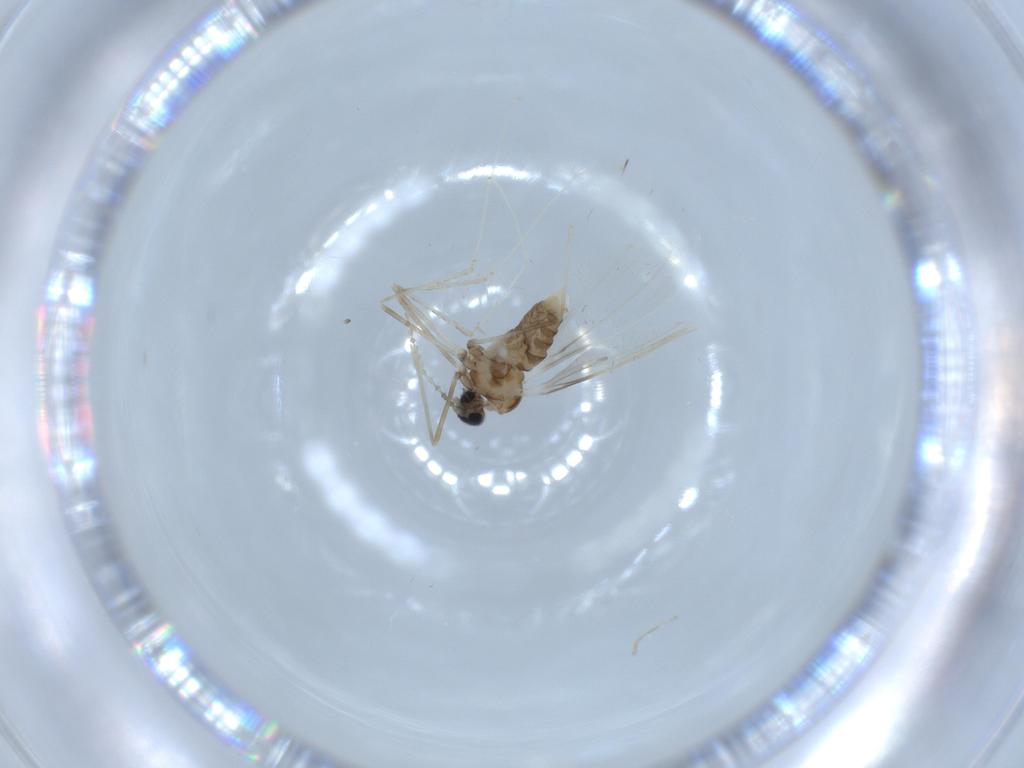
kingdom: Animalia
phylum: Arthropoda
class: Insecta
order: Diptera
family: Cecidomyiidae
